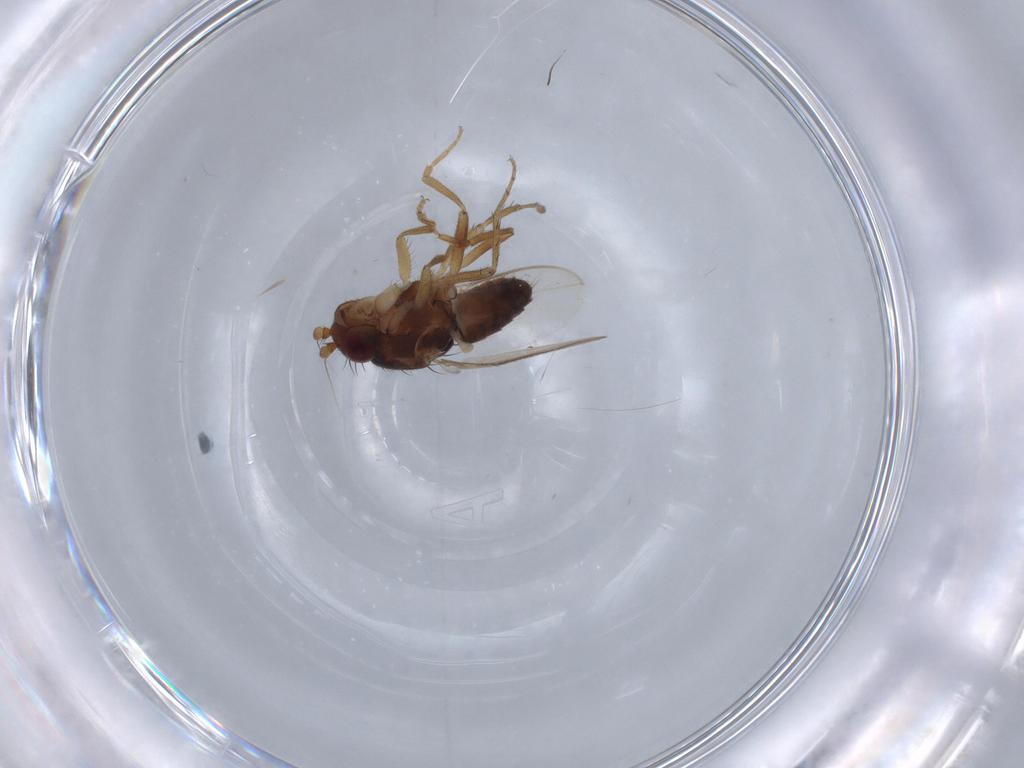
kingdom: Animalia
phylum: Arthropoda
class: Insecta
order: Diptera
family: Sphaeroceridae
